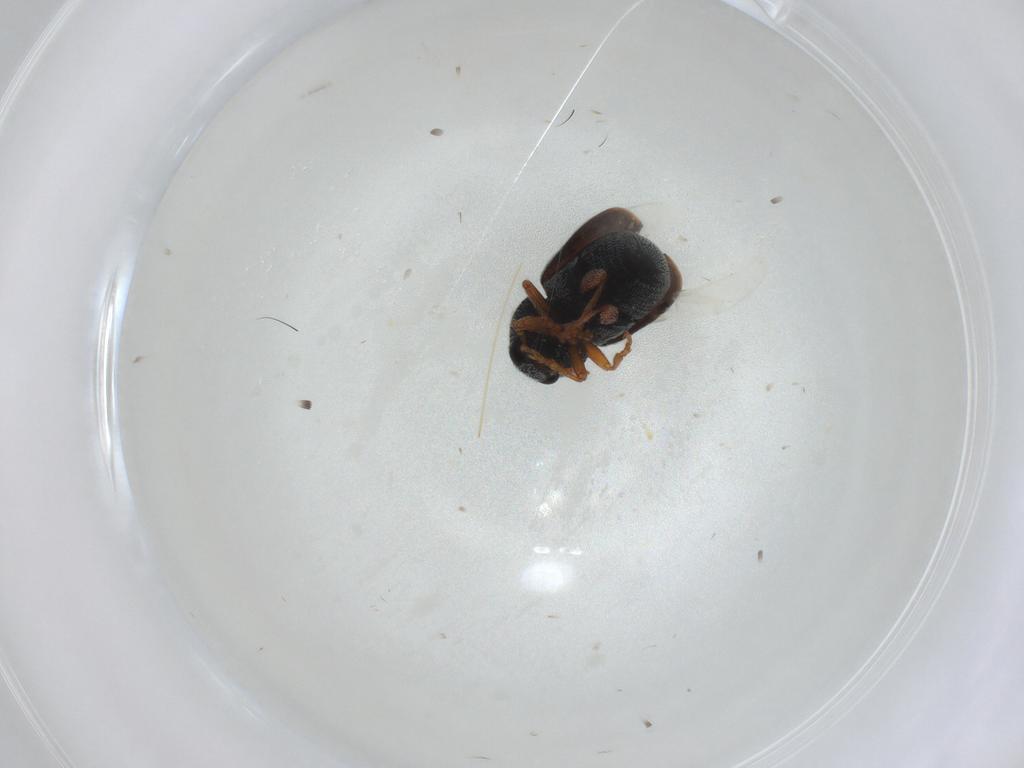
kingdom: Animalia
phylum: Arthropoda
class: Insecta
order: Coleoptera
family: Anthribidae
